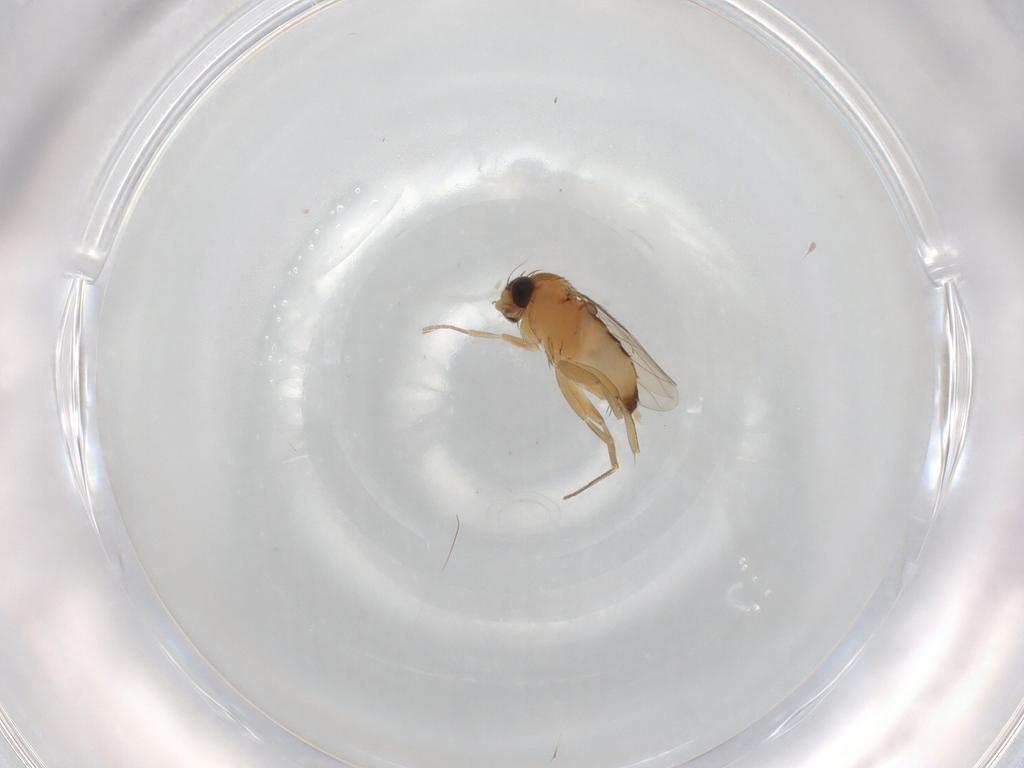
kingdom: Animalia
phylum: Arthropoda
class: Insecta
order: Diptera
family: Phoridae
